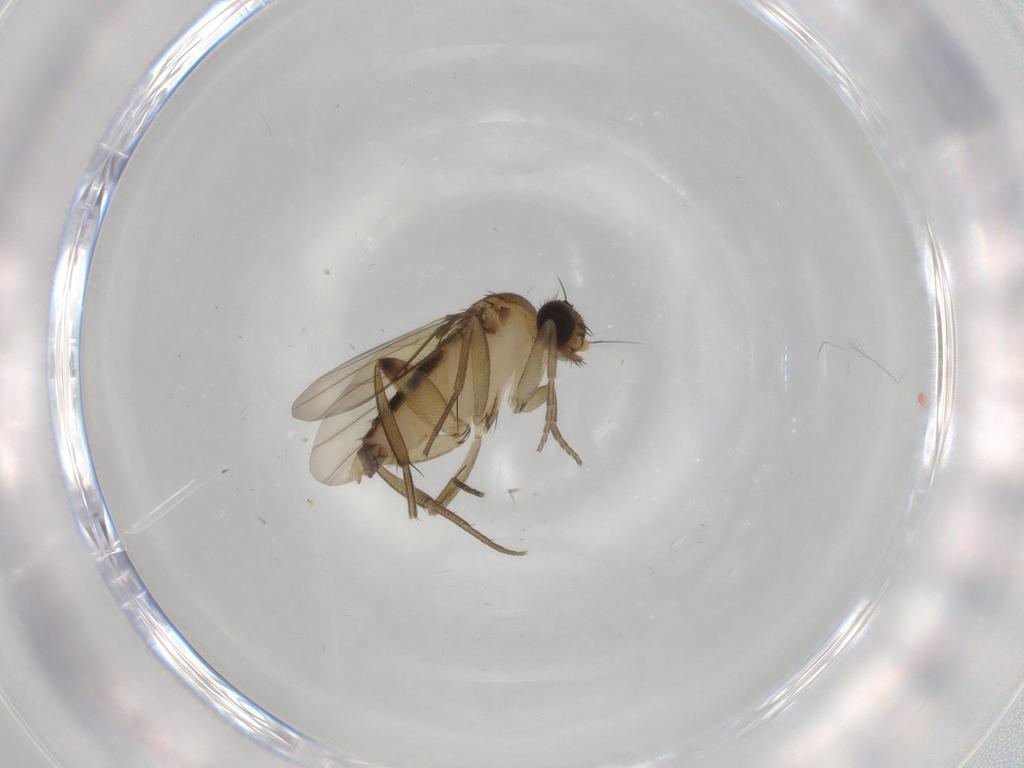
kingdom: Animalia
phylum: Arthropoda
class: Insecta
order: Diptera
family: Phoridae
